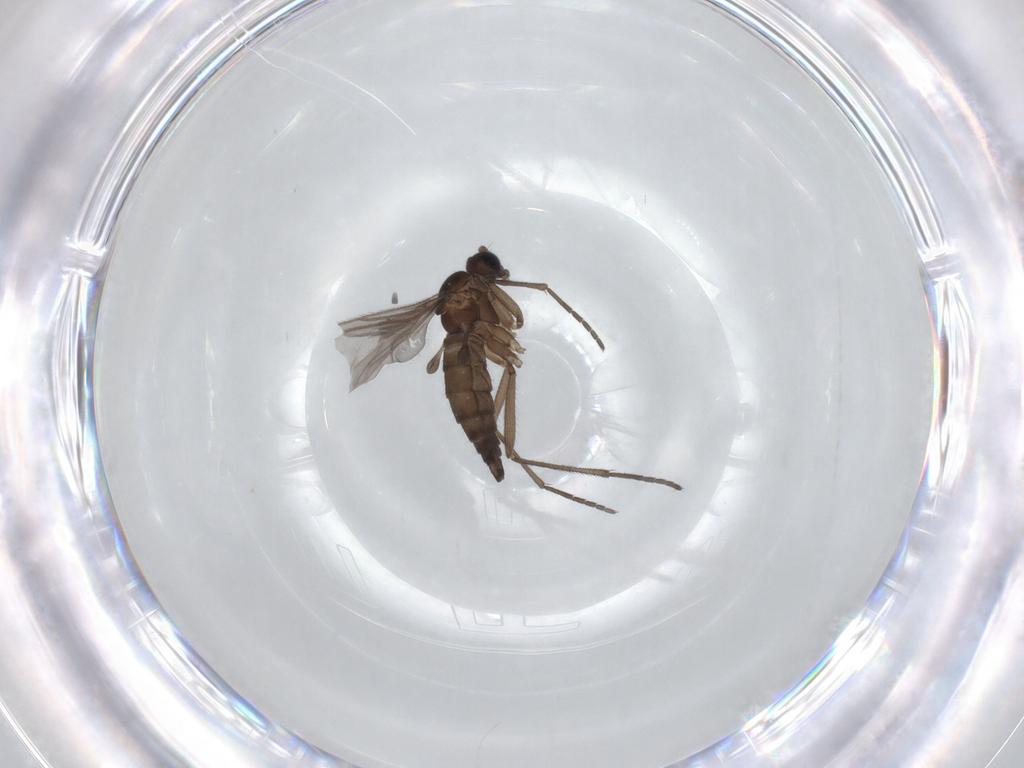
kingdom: Animalia
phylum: Arthropoda
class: Insecta
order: Diptera
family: Sciaridae
